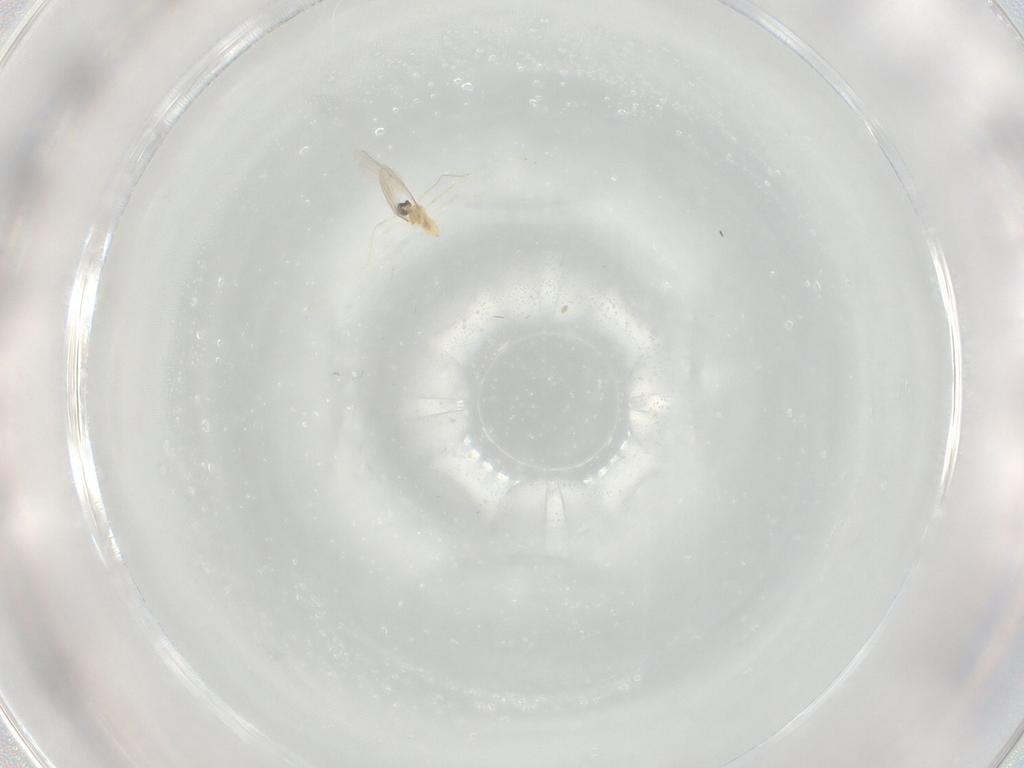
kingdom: Animalia
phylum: Arthropoda
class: Insecta
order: Diptera
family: Cecidomyiidae
